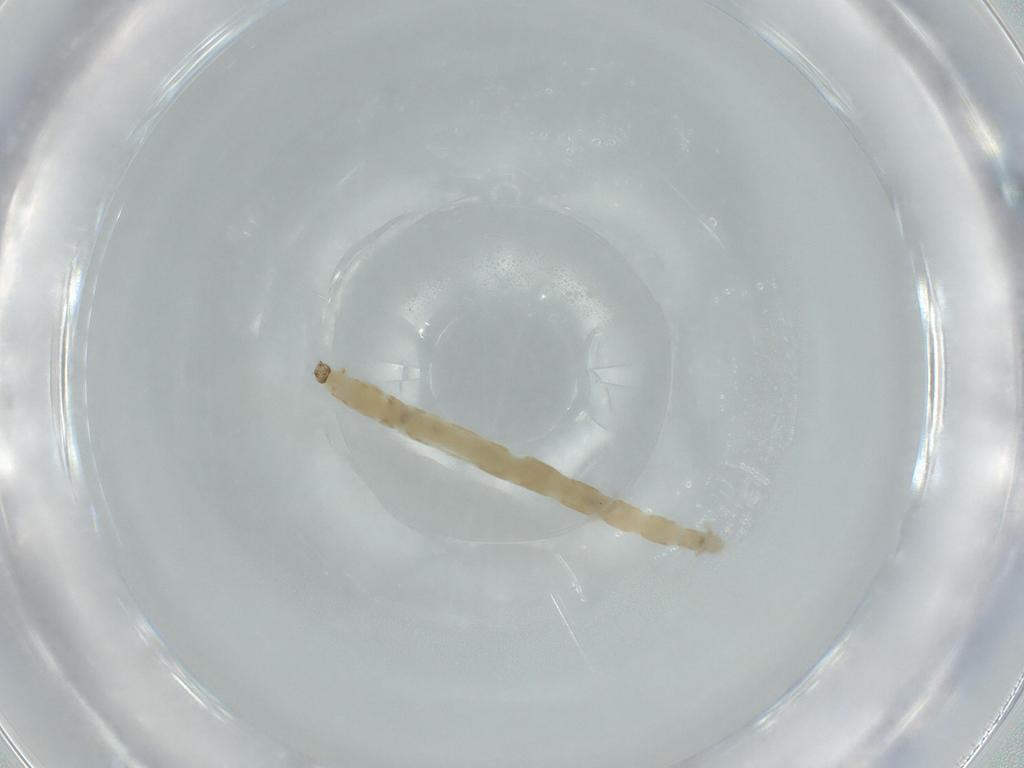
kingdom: Animalia
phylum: Arthropoda
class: Insecta
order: Diptera
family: Chironomidae
